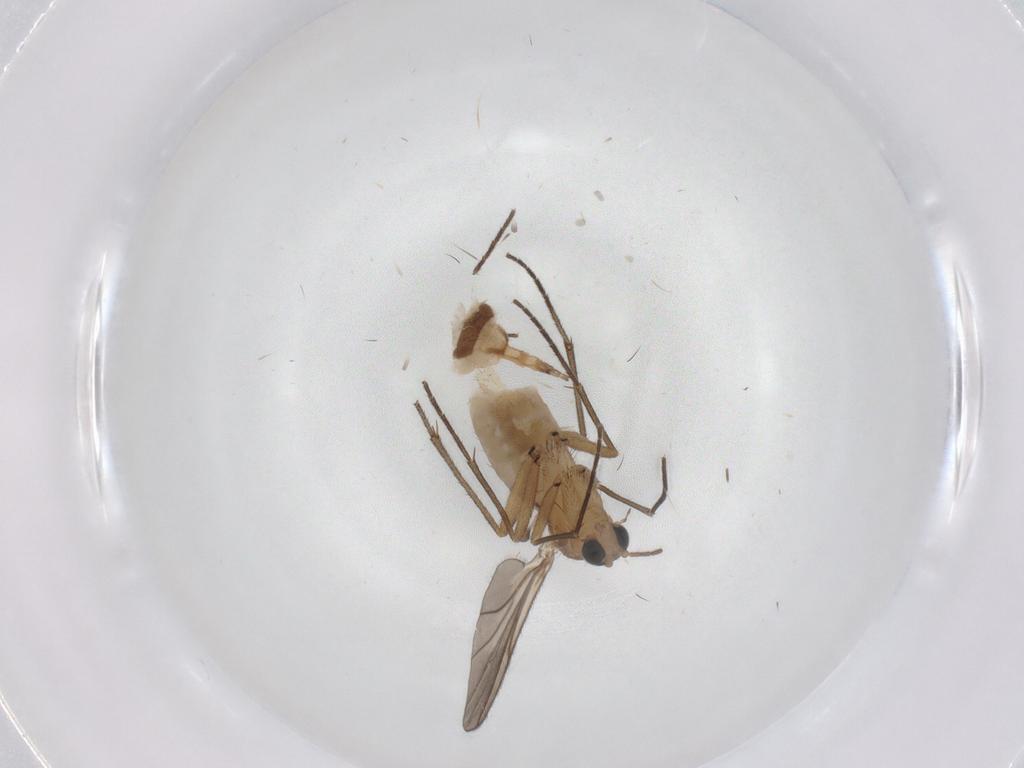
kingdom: Animalia
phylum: Arthropoda
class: Insecta
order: Diptera
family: Sciaridae
